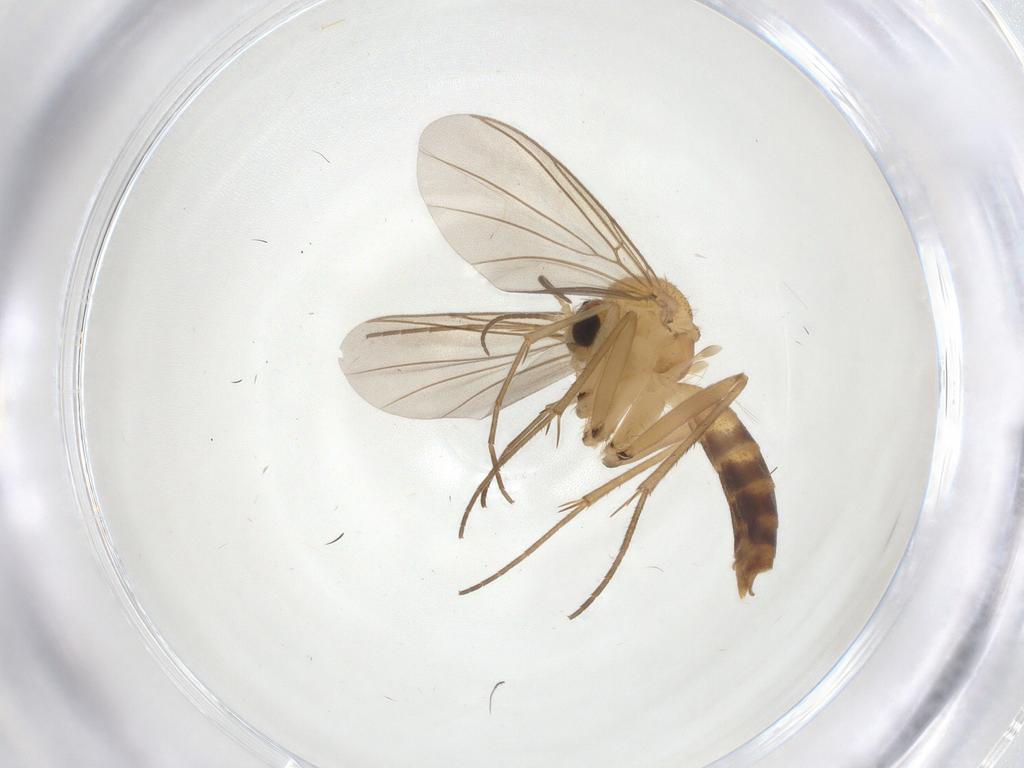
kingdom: Animalia
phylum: Arthropoda
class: Insecta
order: Diptera
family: Mycetophilidae
